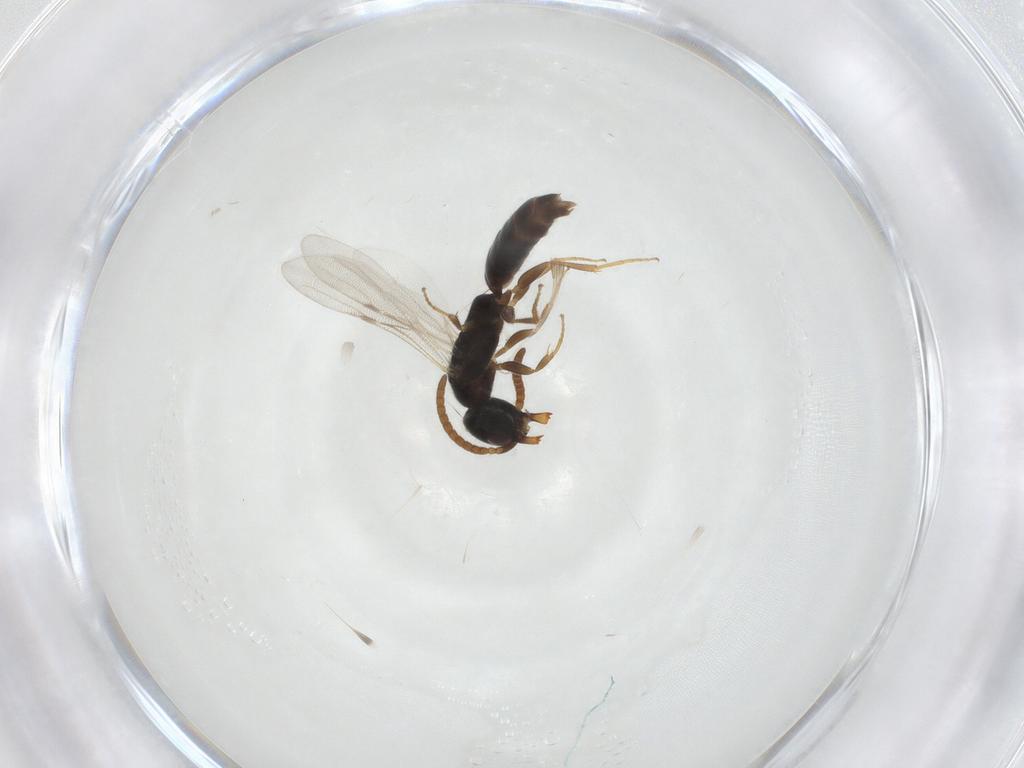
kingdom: Animalia
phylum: Arthropoda
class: Insecta
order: Hymenoptera
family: Bethylidae
